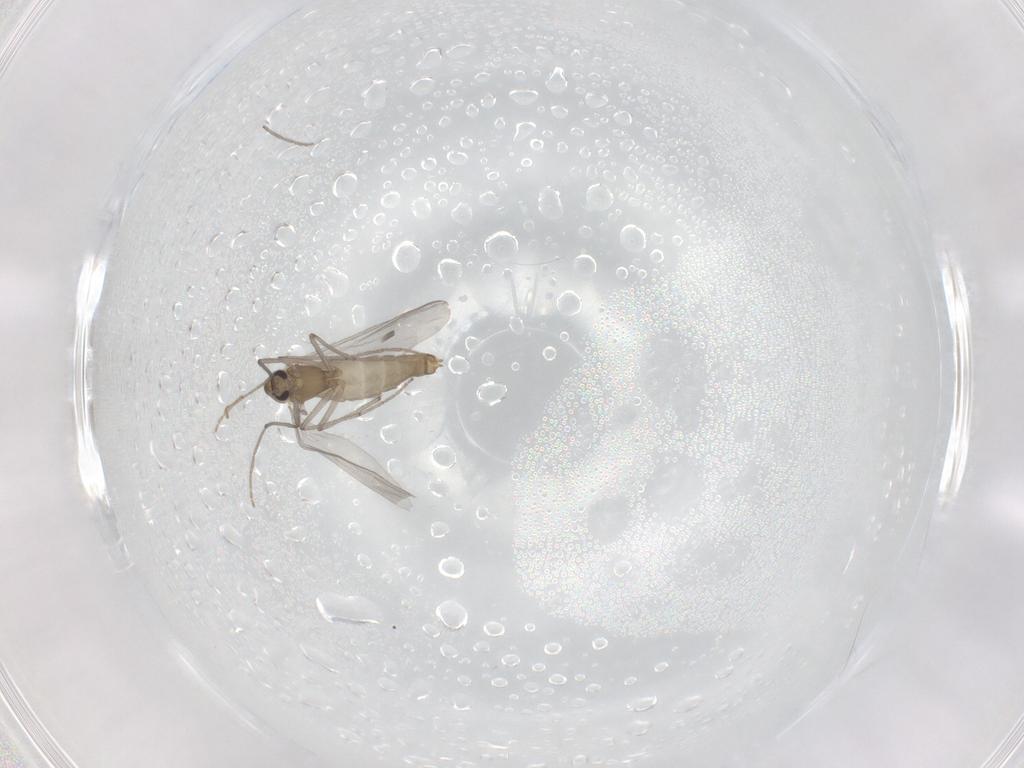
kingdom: Animalia
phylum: Arthropoda
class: Insecta
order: Diptera
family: Chironomidae
